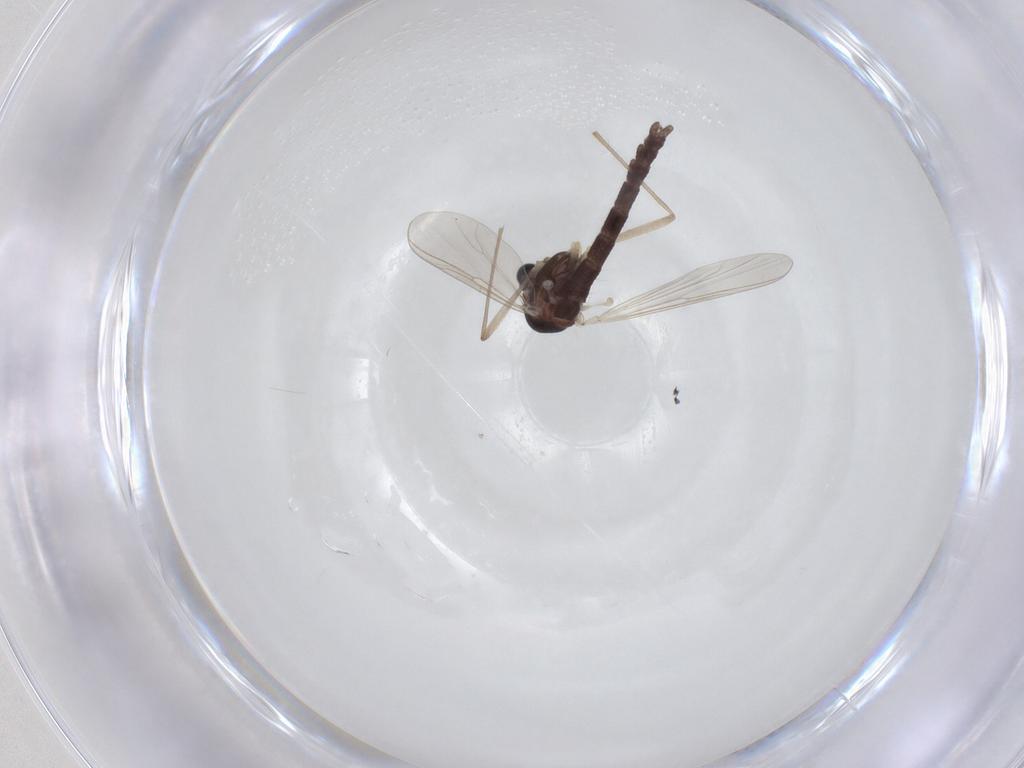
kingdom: Animalia
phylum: Arthropoda
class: Insecta
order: Diptera
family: Chironomidae
